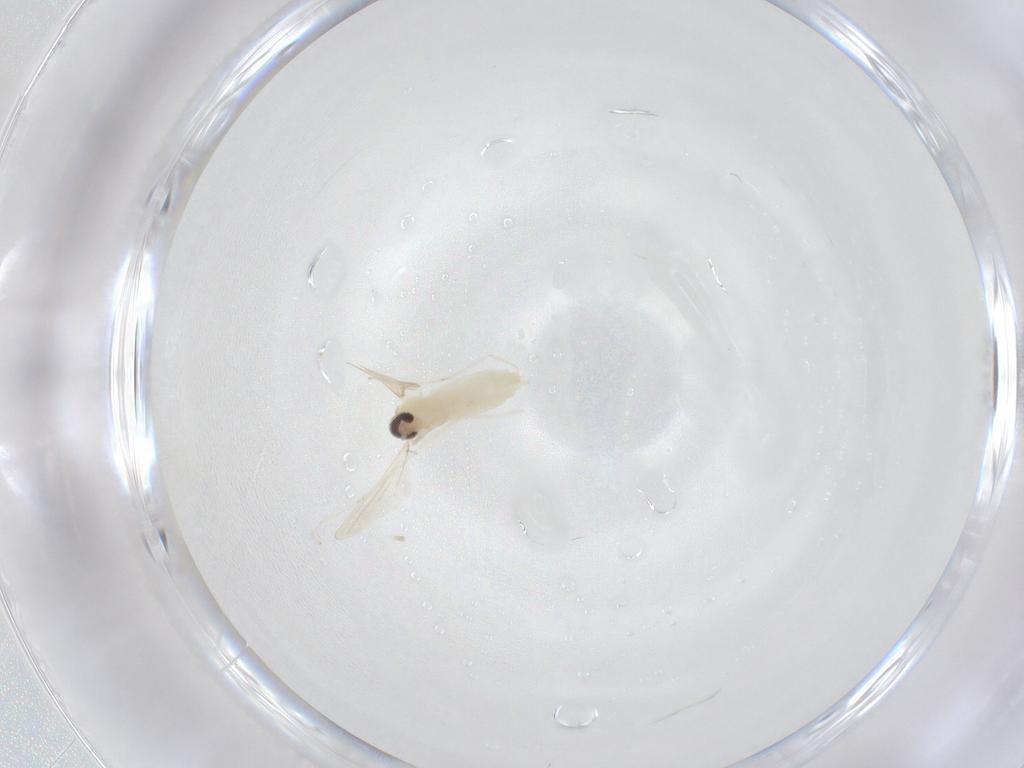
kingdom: Animalia
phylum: Arthropoda
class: Insecta
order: Diptera
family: Cecidomyiidae
